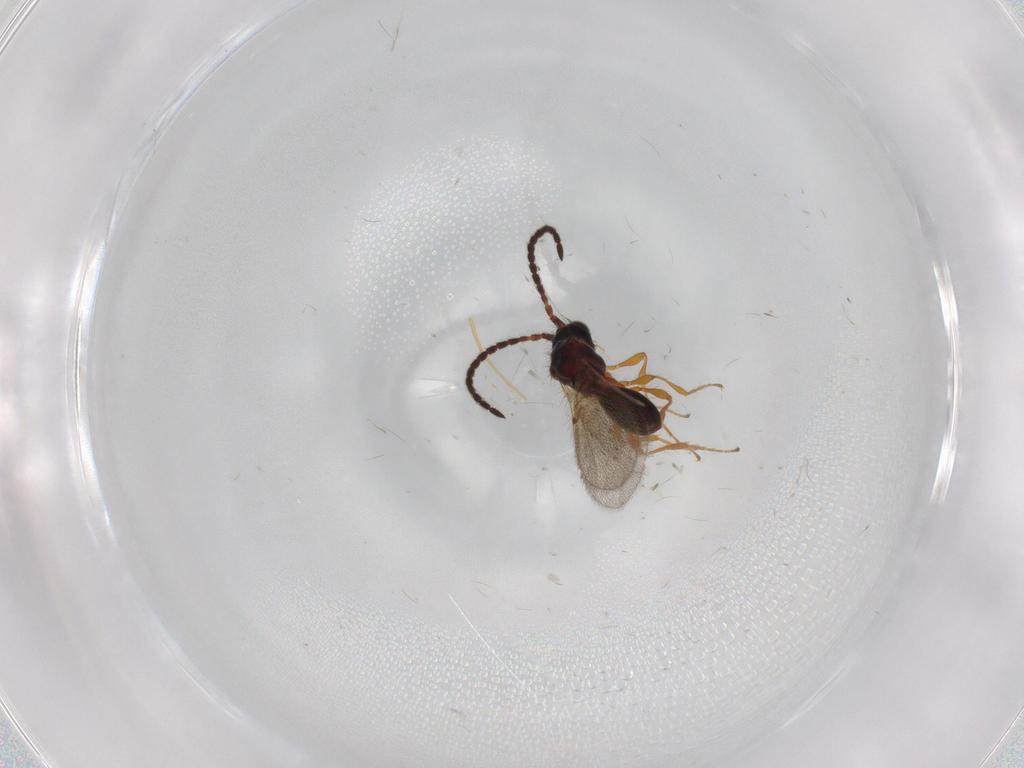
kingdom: Animalia
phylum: Arthropoda
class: Insecta
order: Hymenoptera
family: Diapriidae
